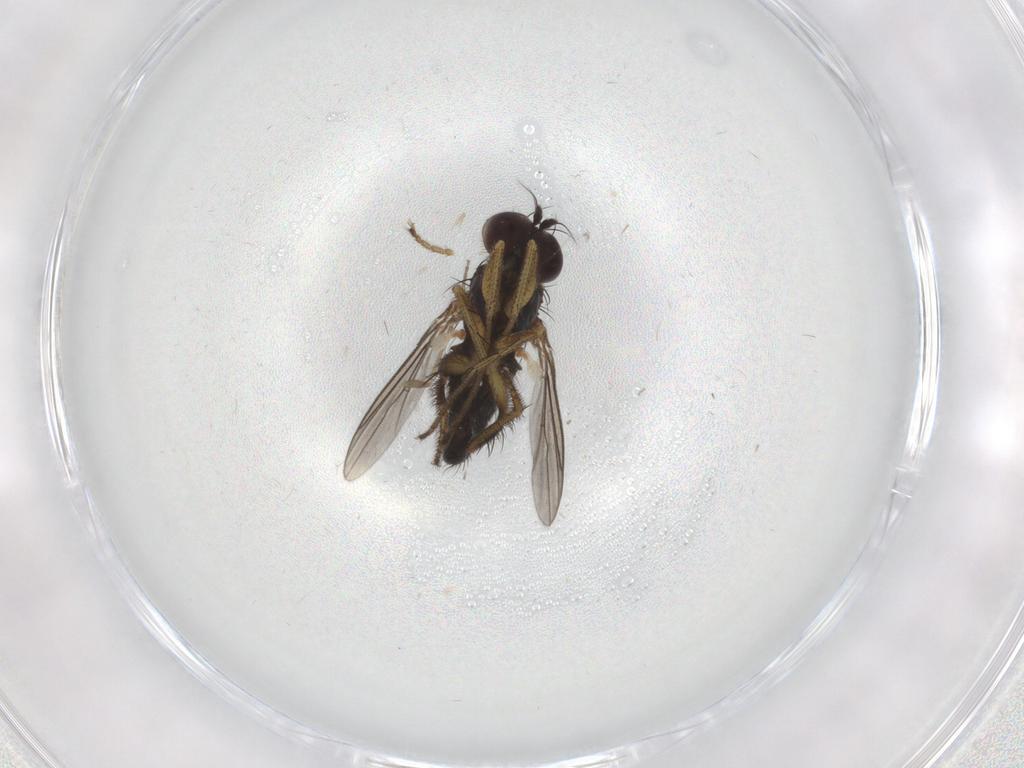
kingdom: Animalia
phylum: Arthropoda
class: Insecta
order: Diptera
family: Dolichopodidae
